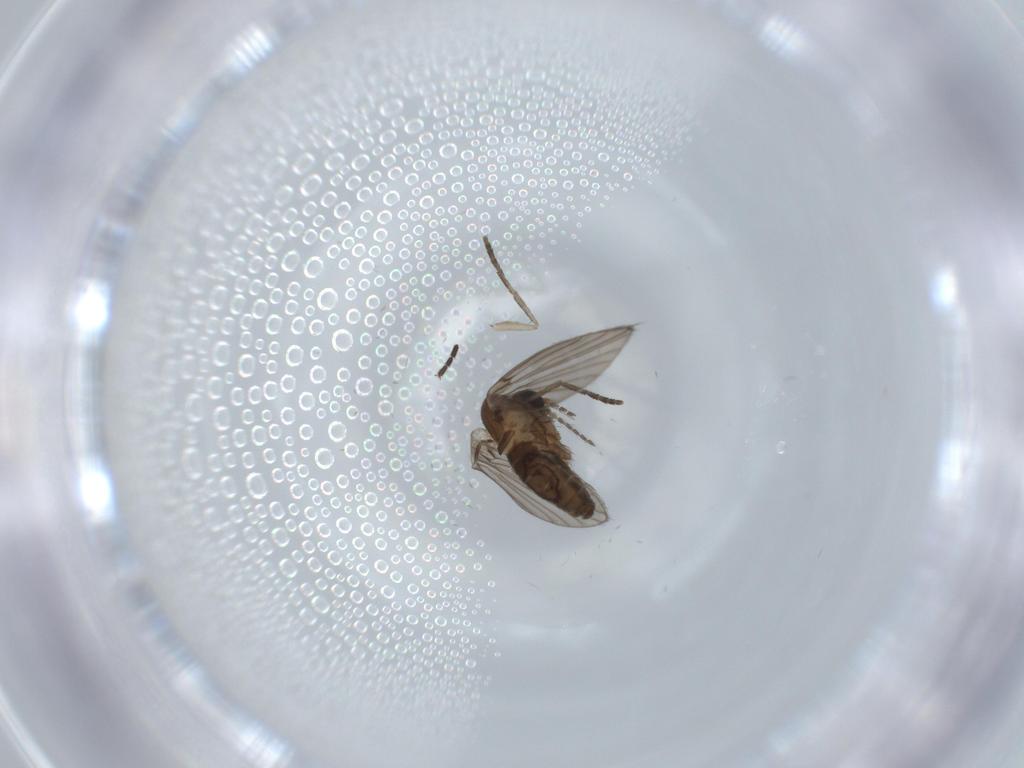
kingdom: Animalia
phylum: Arthropoda
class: Insecta
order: Diptera
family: Psychodidae
